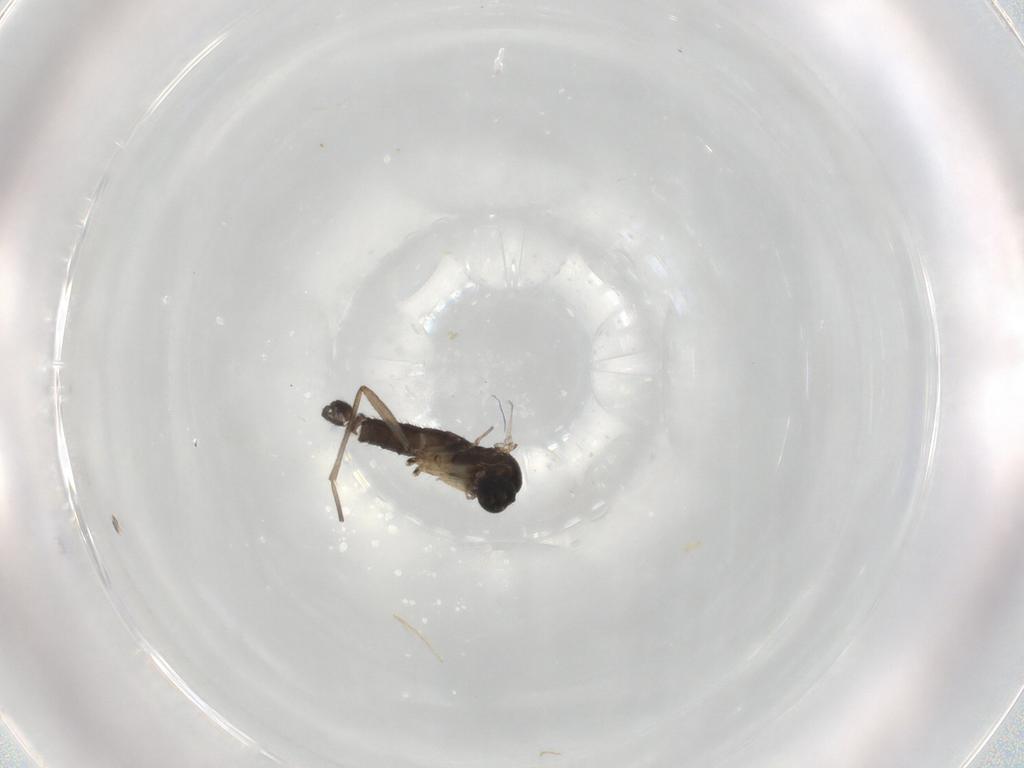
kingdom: Animalia
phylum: Arthropoda
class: Insecta
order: Diptera
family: Sciaridae
